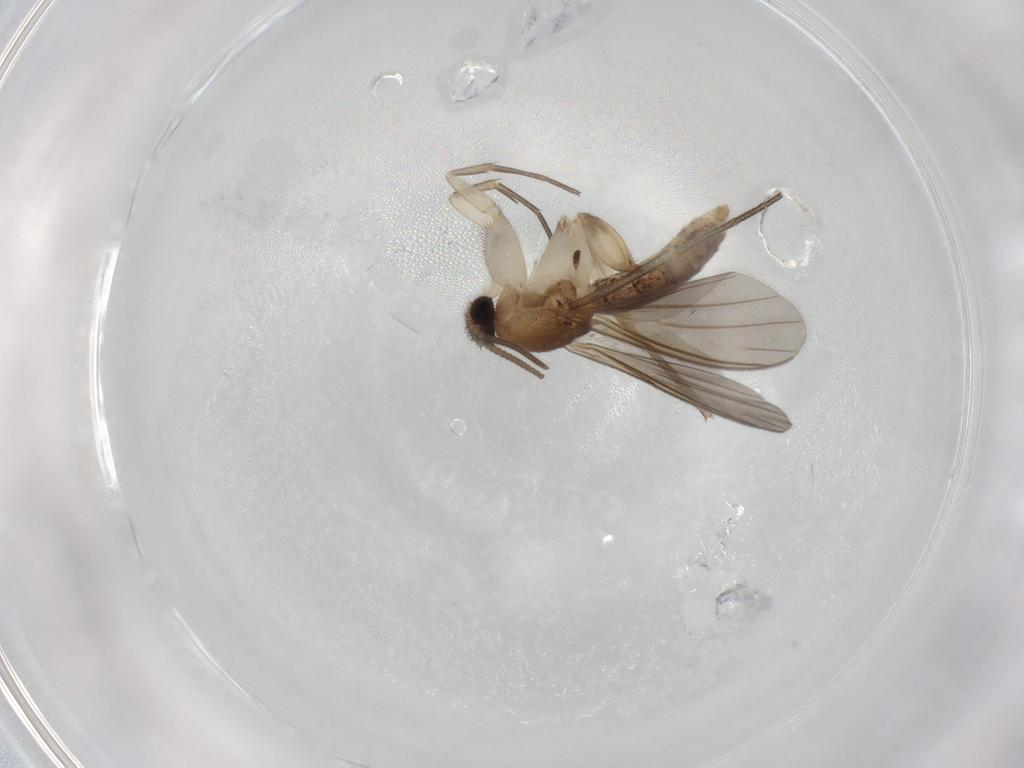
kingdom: Animalia
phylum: Arthropoda
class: Insecta
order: Diptera
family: Mycetophilidae
